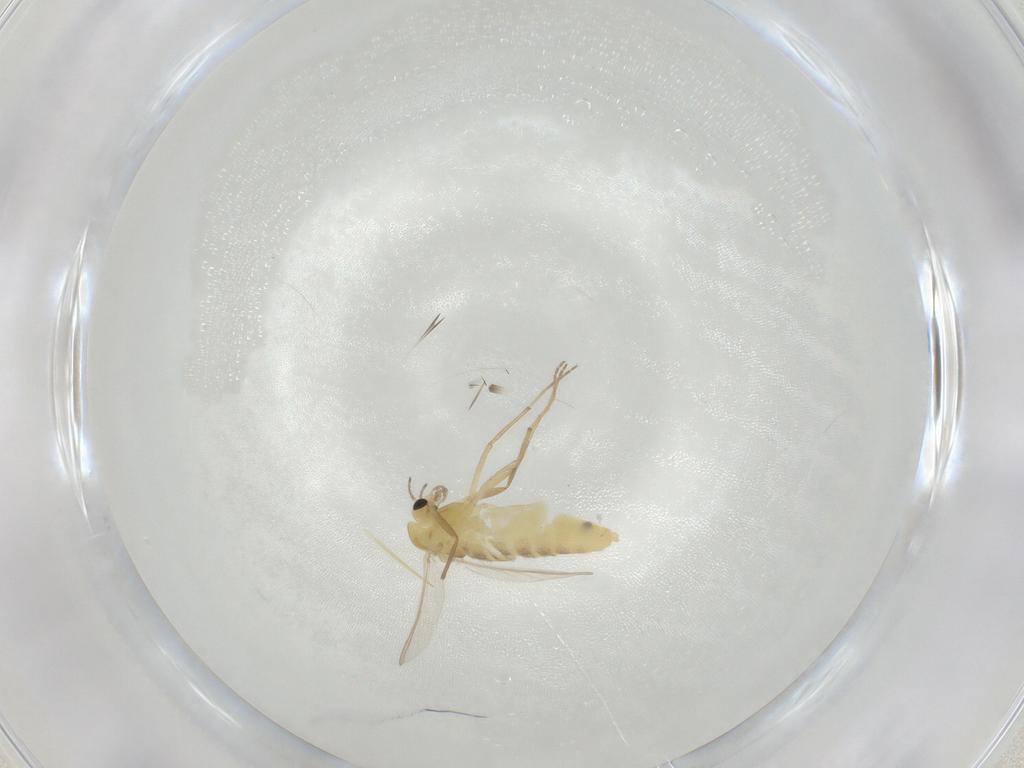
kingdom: Animalia
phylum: Arthropoda
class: Insecta
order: Diptera
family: Chironomidae
